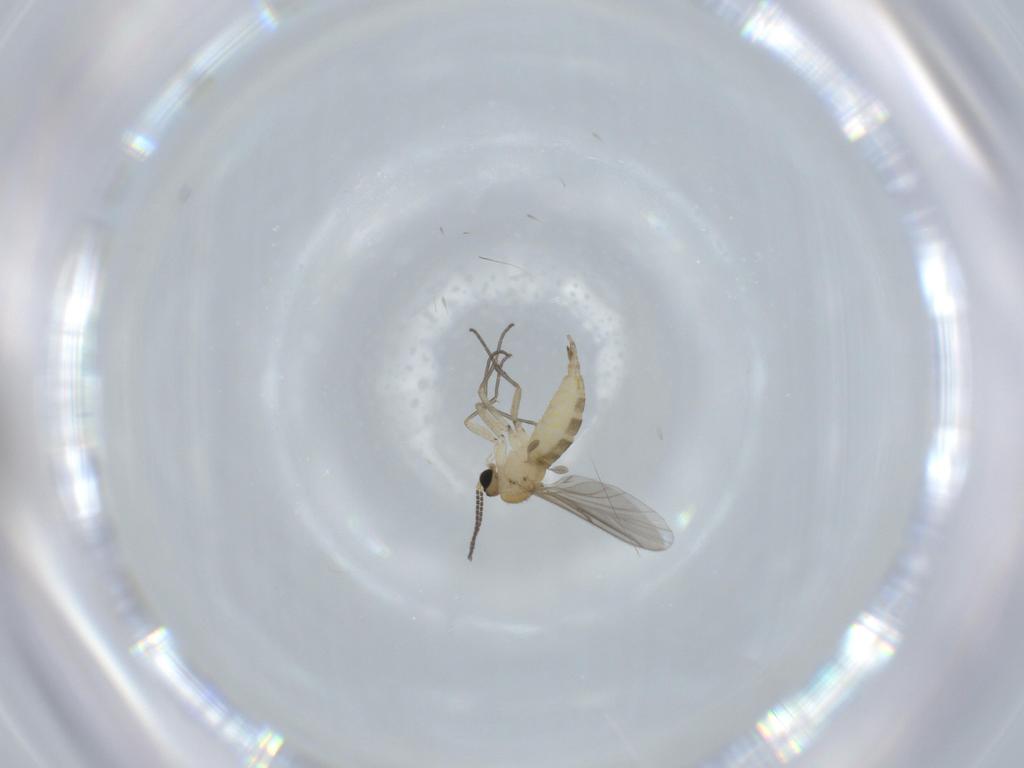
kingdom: Animalia
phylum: Arthropoda
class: Insecta
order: Diptera
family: Sciaridae
